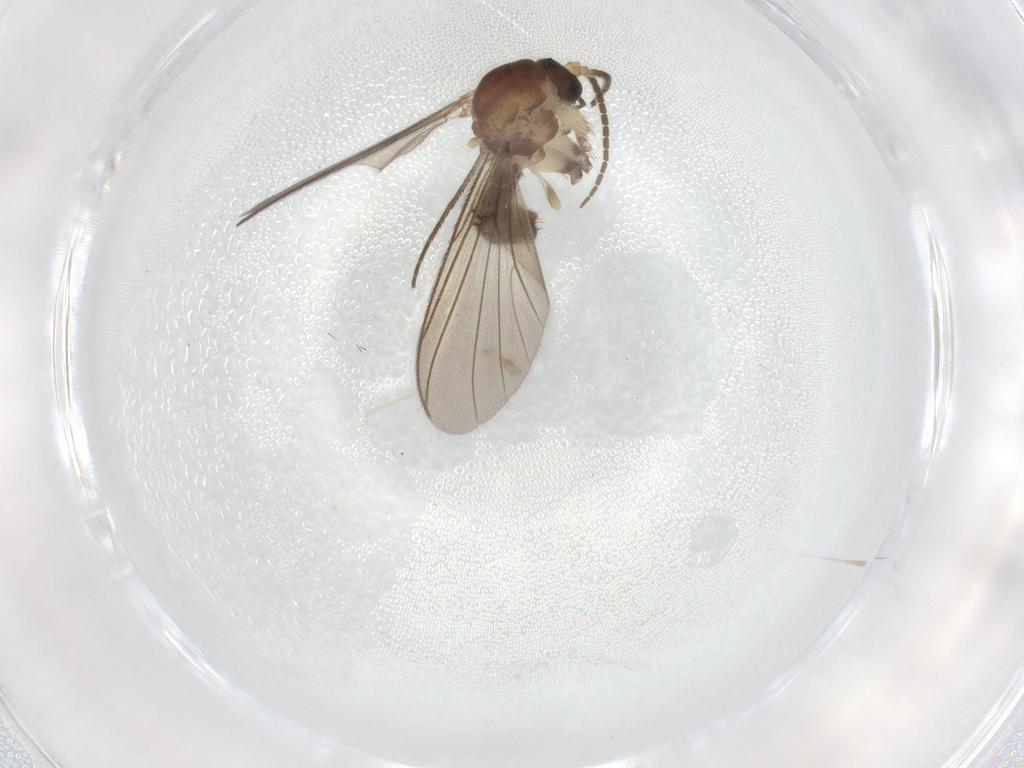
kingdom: Animalia
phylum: Arthropoda
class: Insecta
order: Diptera
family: Mycetophilidae
